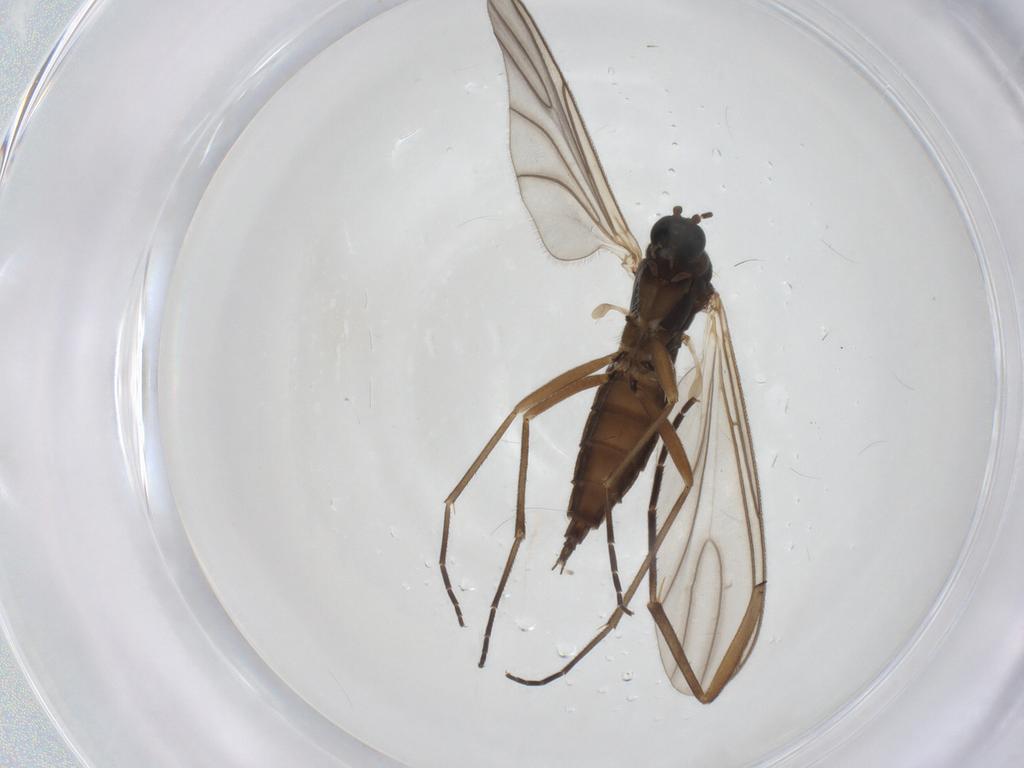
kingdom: Animalia
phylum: Arthropoda
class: Insecta
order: Diptera
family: Sciaridae
